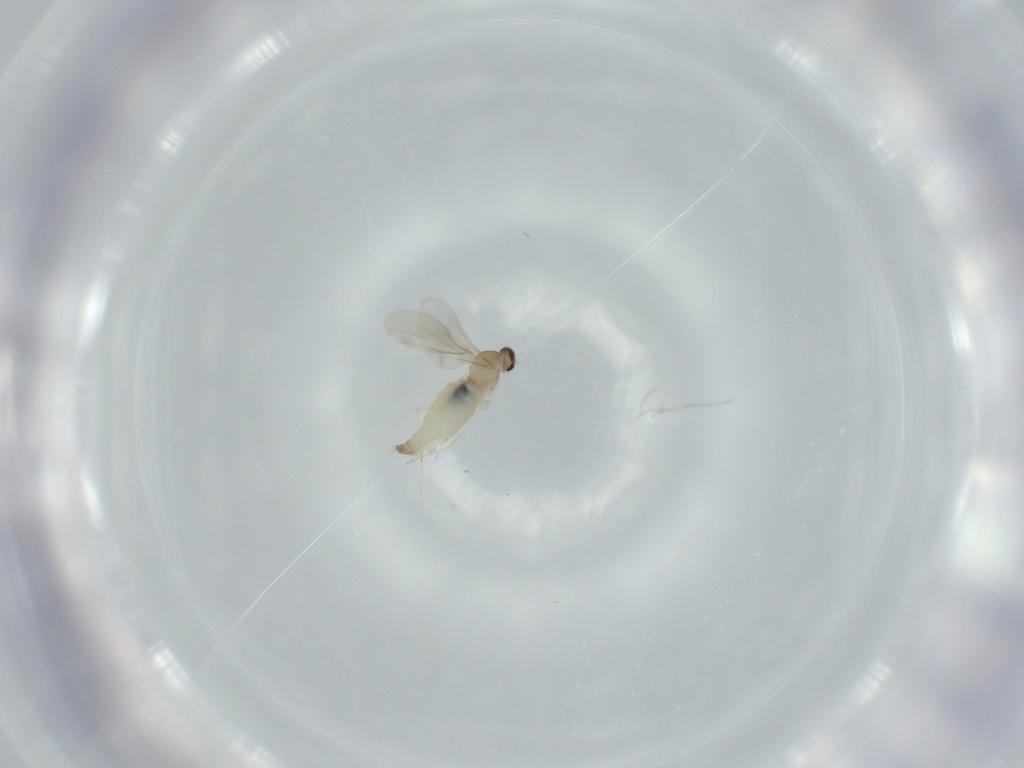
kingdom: Animalia
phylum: Arthropoda
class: Insecta
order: Diptera
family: Cecidomyiidae
